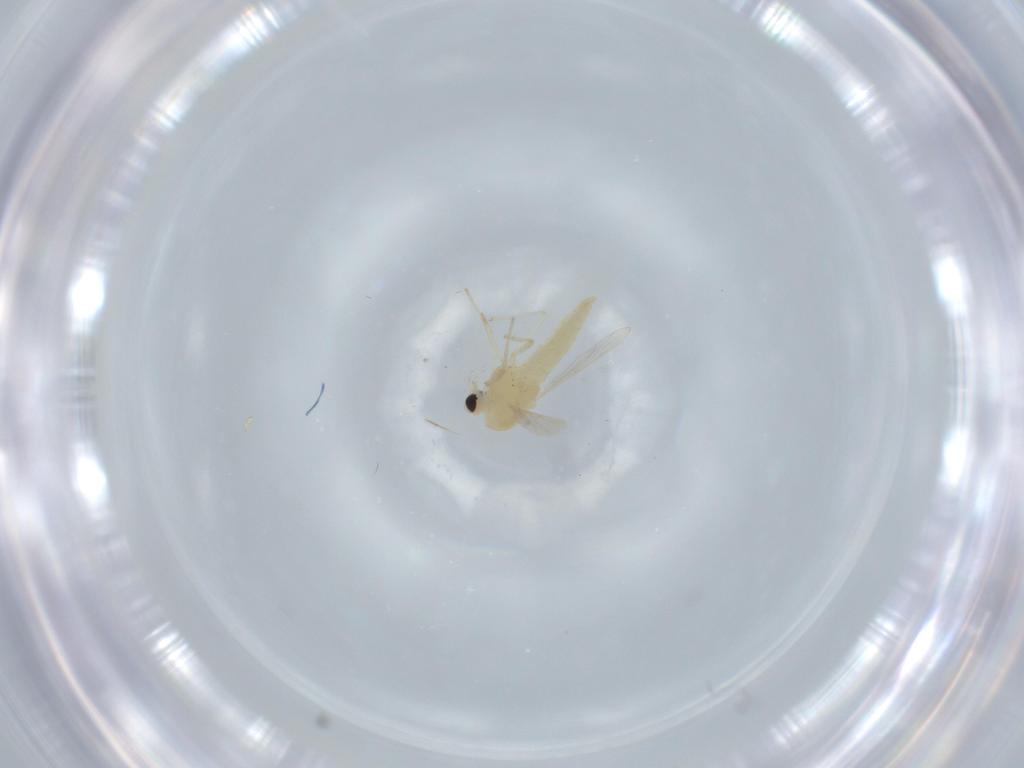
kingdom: Animalia
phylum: Arthropoda
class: Insecta
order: Diptera
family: Chironomidae
